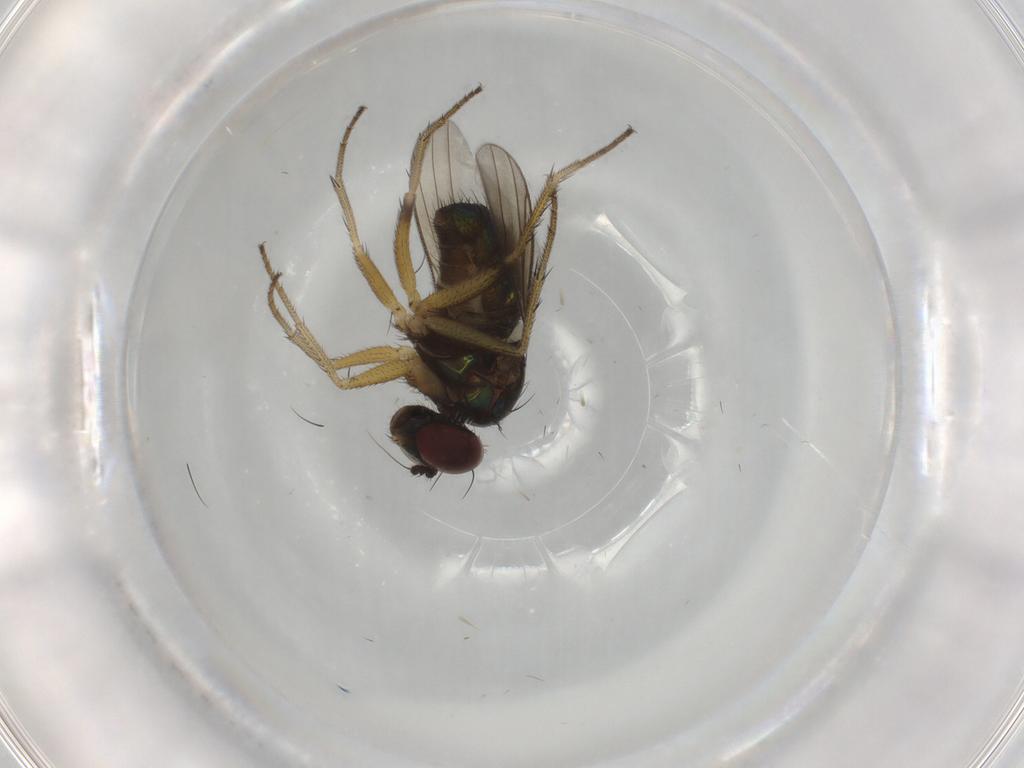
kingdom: Animalia
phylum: Arthropoda
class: Insecta
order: Diptera
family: Dolichopodidae
